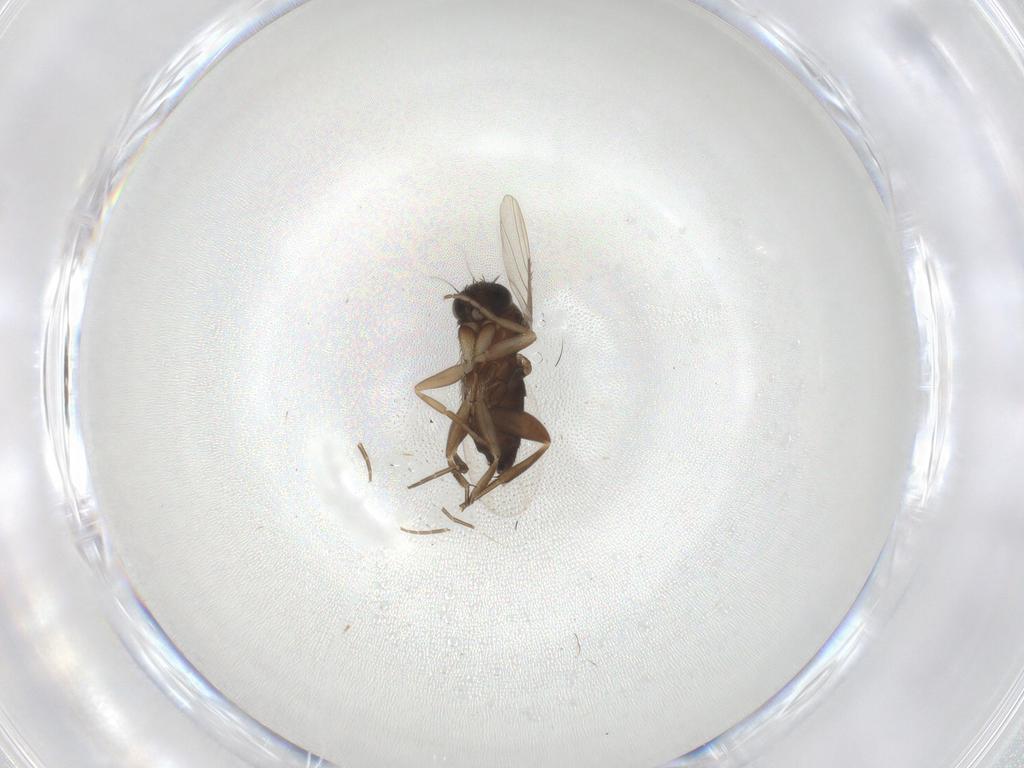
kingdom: Animalia
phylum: Arthropoda
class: Insecta
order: Diptera
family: Phoridae
